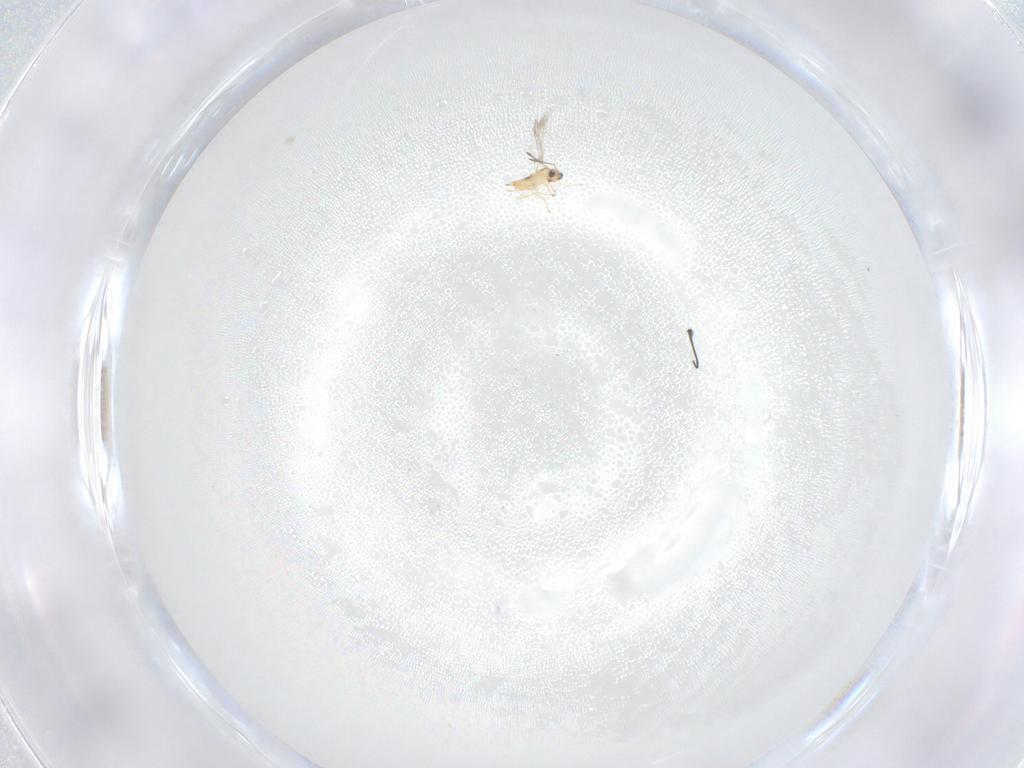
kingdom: Animalia
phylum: Arthropoda
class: Insecta
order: Hymenoptera
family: Mymaridae
